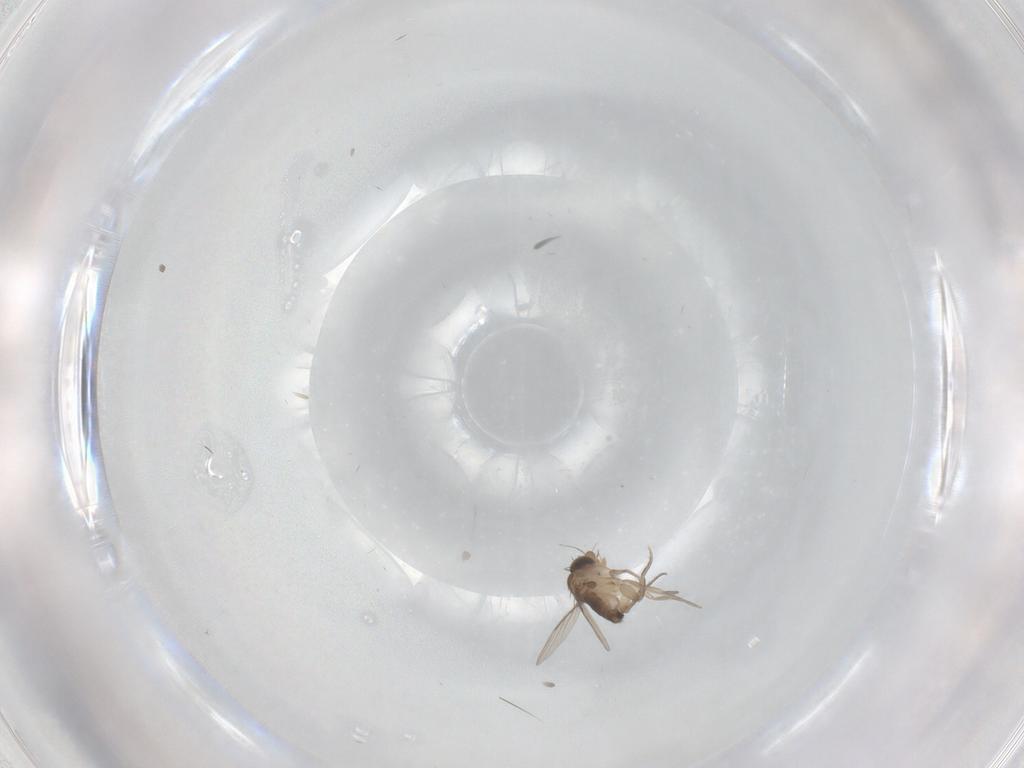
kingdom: Animalia
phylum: Arthropoda
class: Insecta
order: Diptera
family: Phoridae
